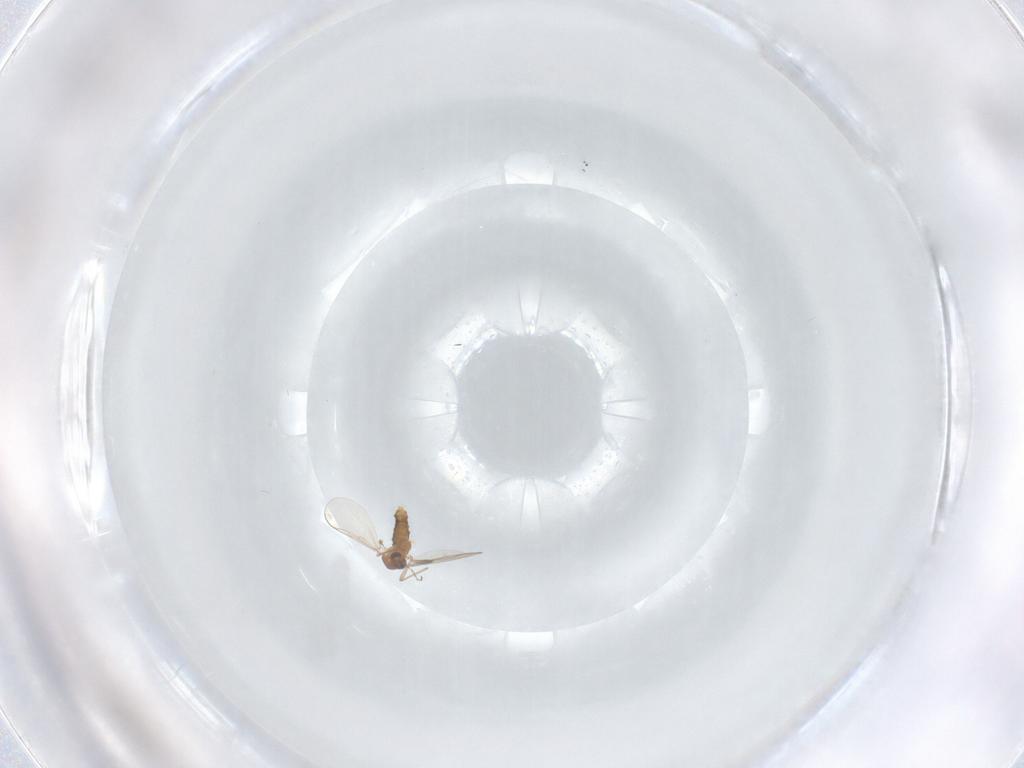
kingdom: Animalia
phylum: Arthropoda
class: Insecta
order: Diptera
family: Chironomidae
